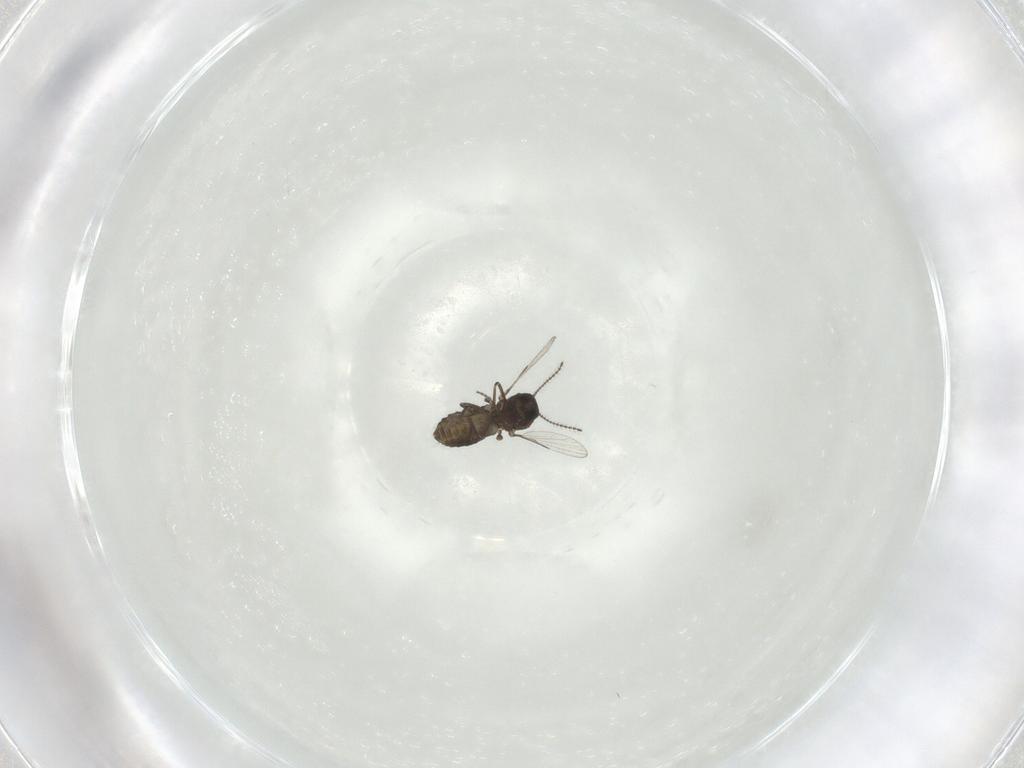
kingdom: Animalia
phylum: Arthropoda
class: Insecta
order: Diptera
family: Ceratopogonidae
